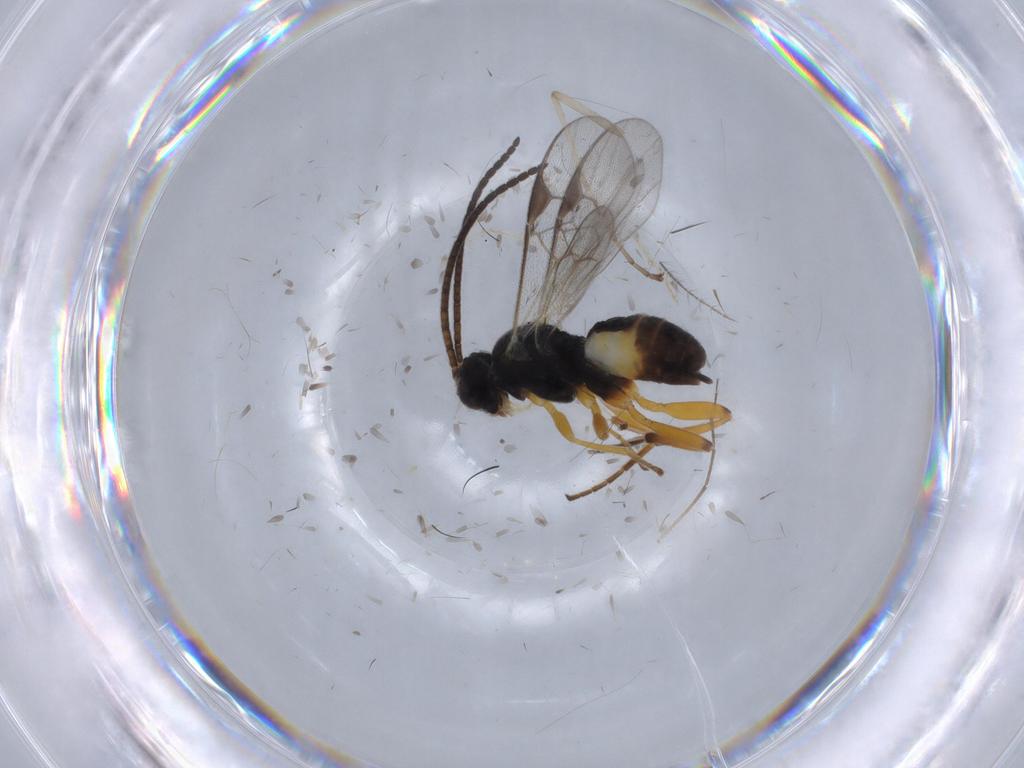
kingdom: Animalia
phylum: Arthropoda
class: Insecta
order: Hymenoptera
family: Braconidae
